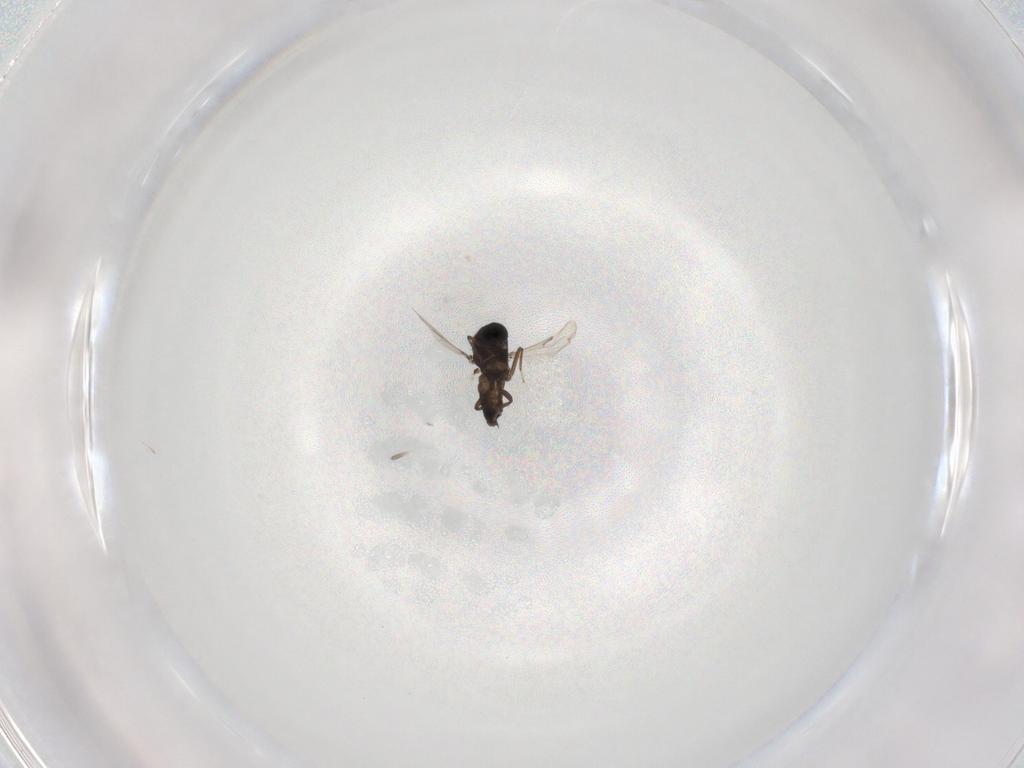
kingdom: Animalia
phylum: Arthropoda
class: Insecta
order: Diptera
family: Ceratopogonidae
